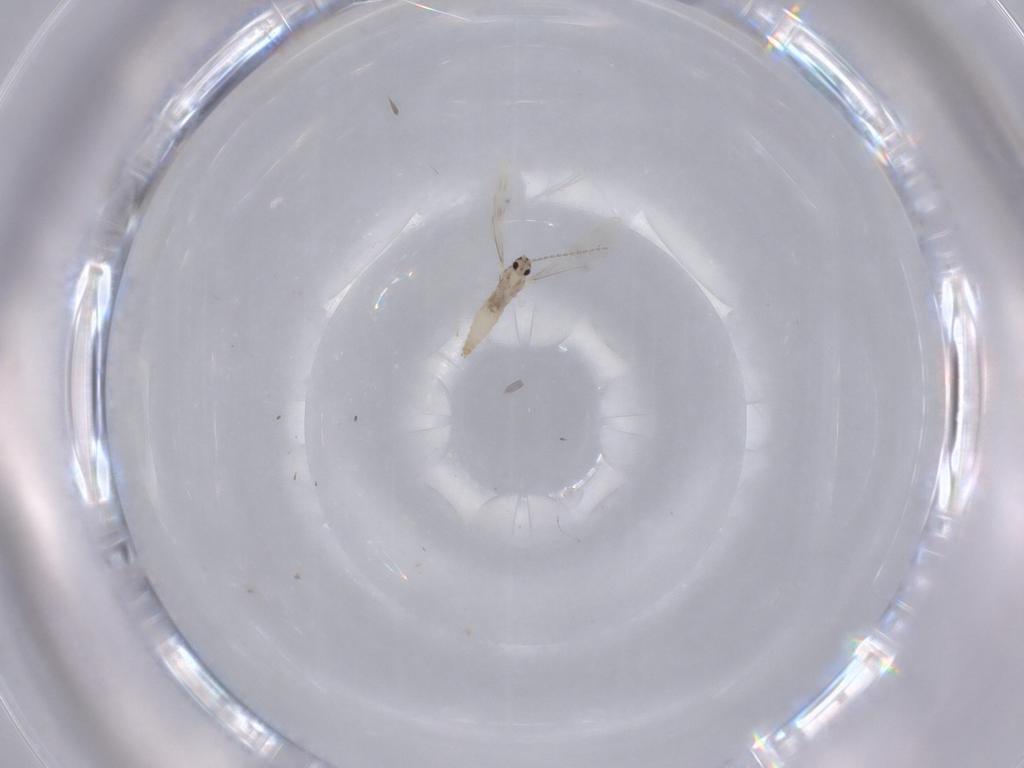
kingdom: Animalia
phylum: Arthropoda
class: Insecta
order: Diptera
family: Cecidomyiidae
